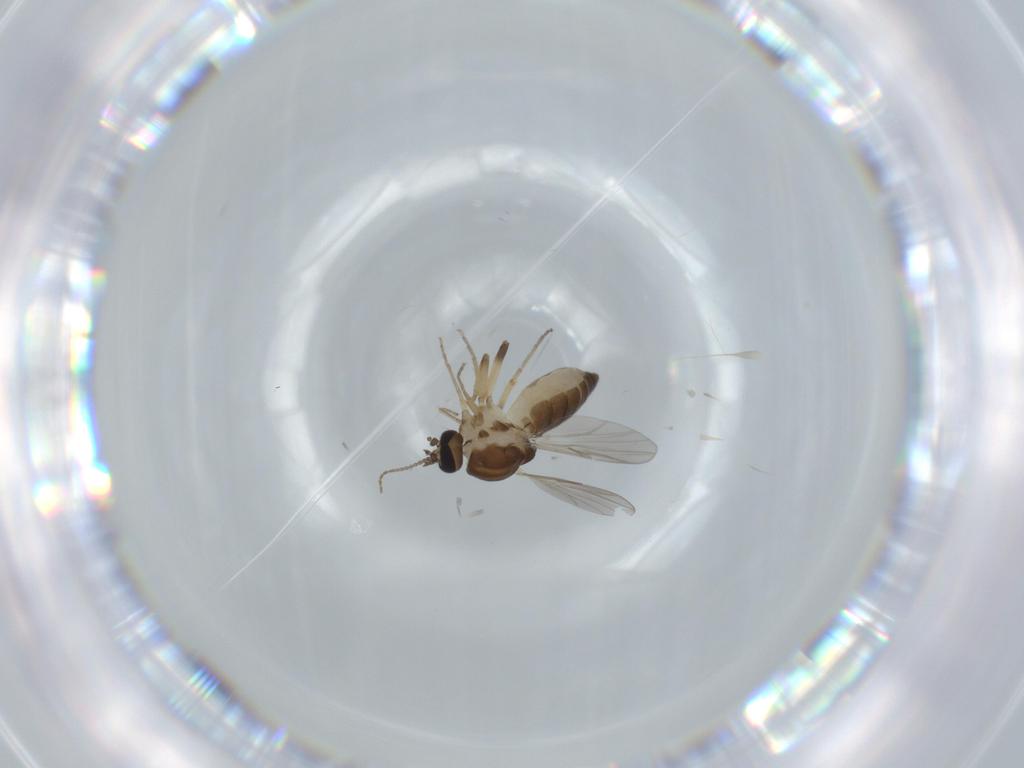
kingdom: Animalia
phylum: Arthropoda
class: Insecta
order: Diptera
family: Ceratopogonidae
